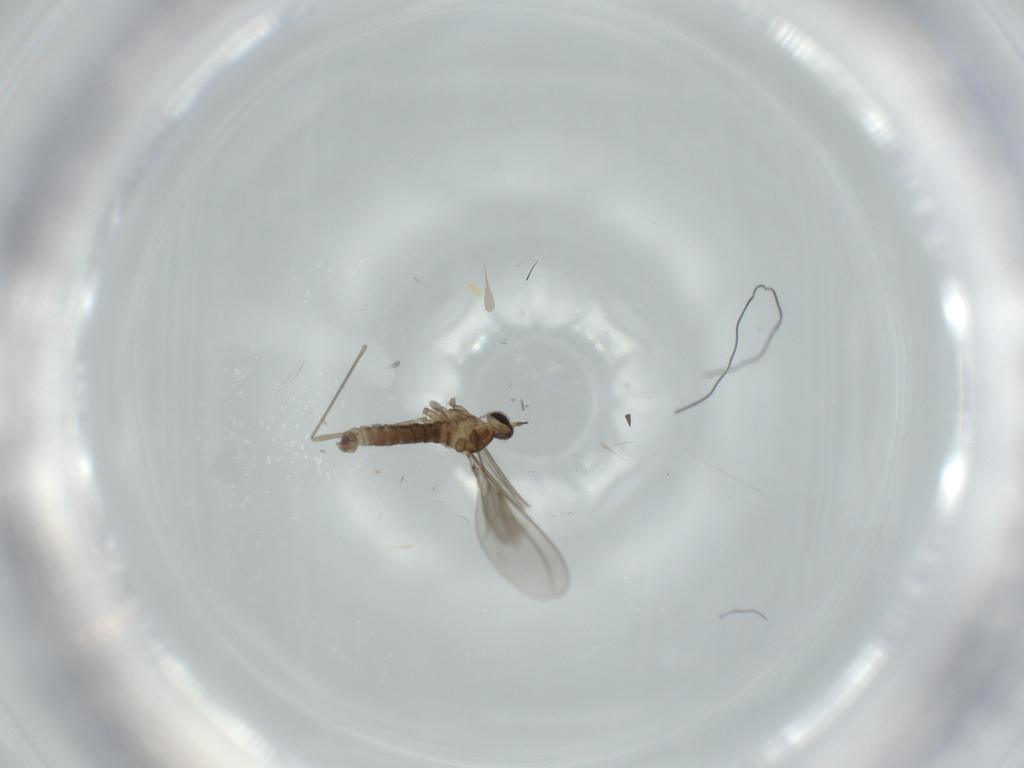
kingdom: Animalia
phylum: Arthropoda
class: Insecta
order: Diptera
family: Cecidomyiidae
